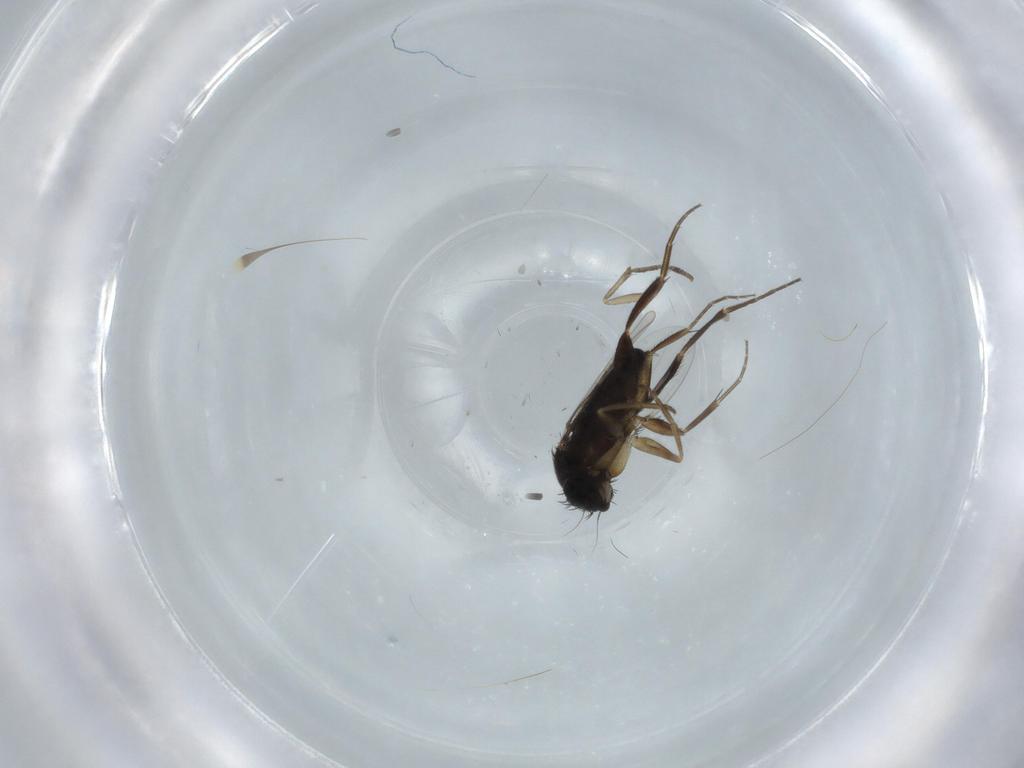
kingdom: Animalia
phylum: Arthropoda
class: Insecta
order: Diptera
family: Phoridae
